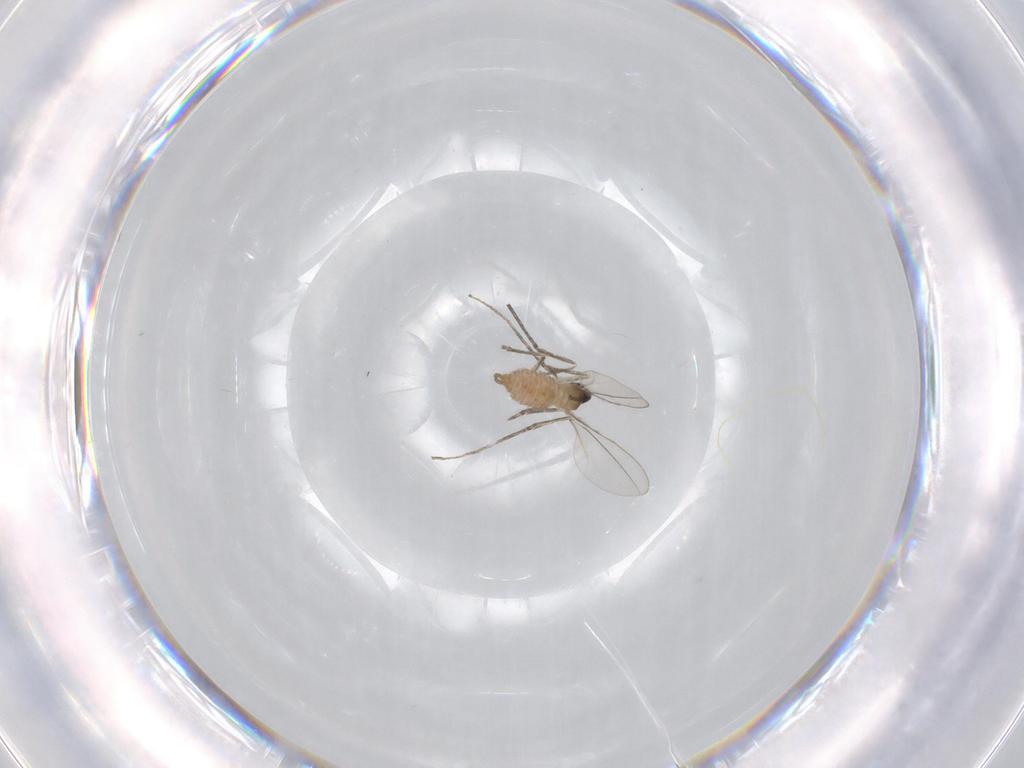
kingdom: Animalia
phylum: Arthropoda
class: Insecta
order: Diptera
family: Cecidomyiidae
